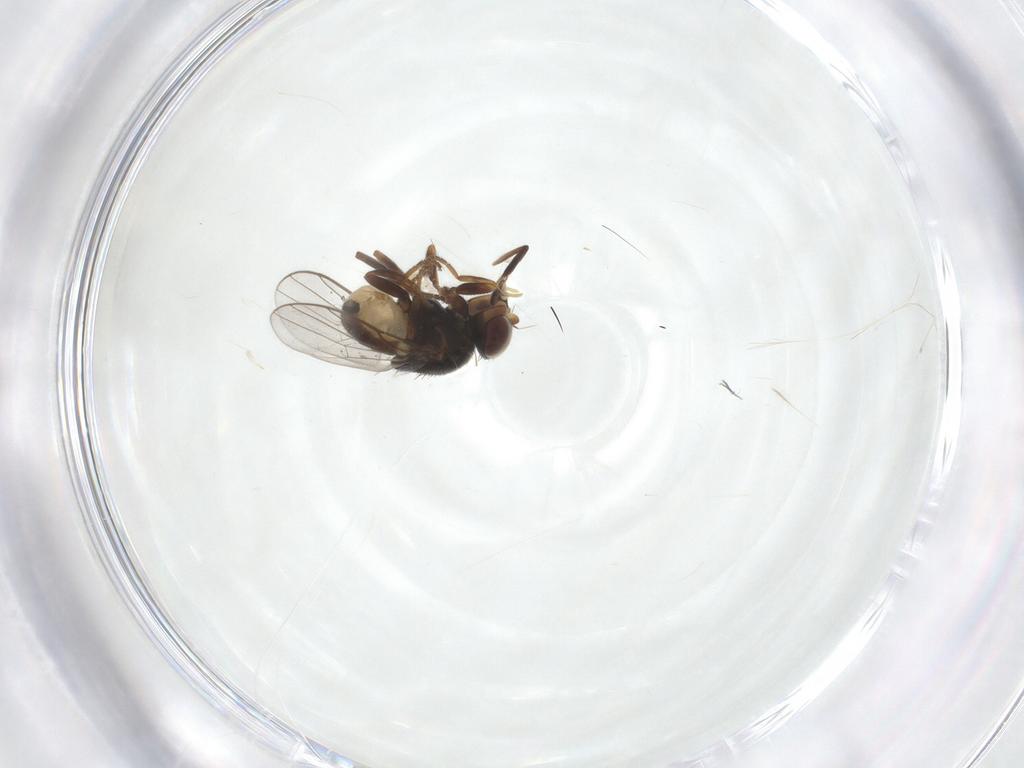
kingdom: Animalia
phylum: Arthropoda
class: Insecta
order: Diptera
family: Chloropidae
